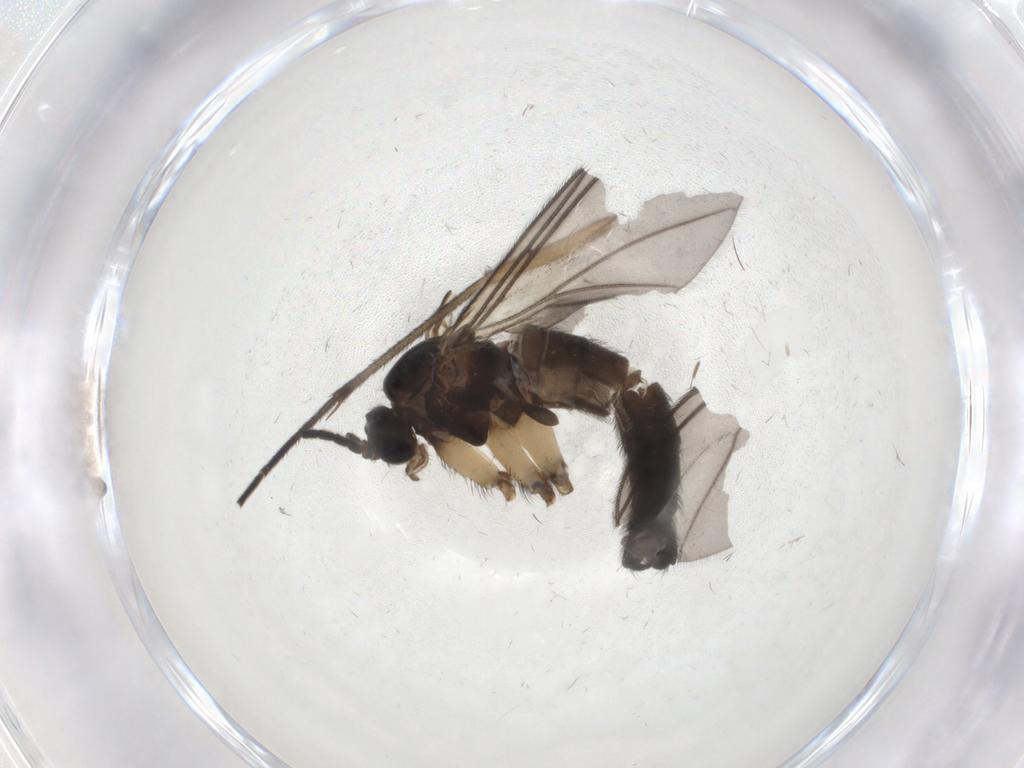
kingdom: Animalia
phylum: Arthropoda
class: Insecta
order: Diptera
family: Sciaridae
